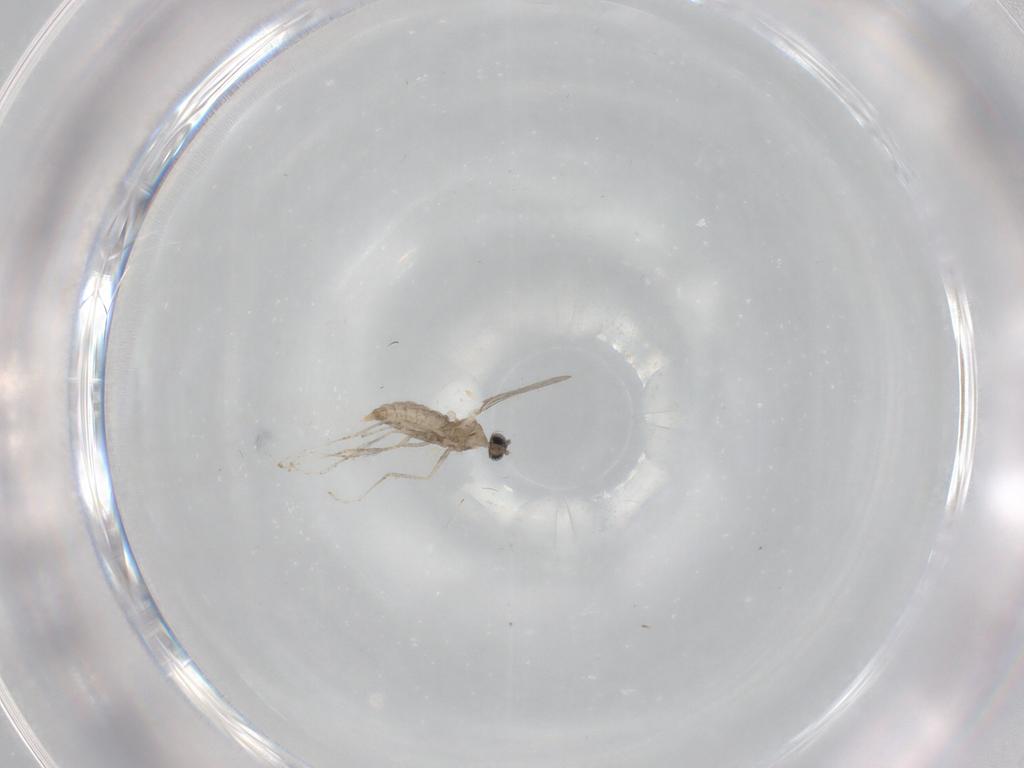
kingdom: Animalia
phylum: Arthropoda
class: Insecta
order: Diptera
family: Cecidomyiidae
